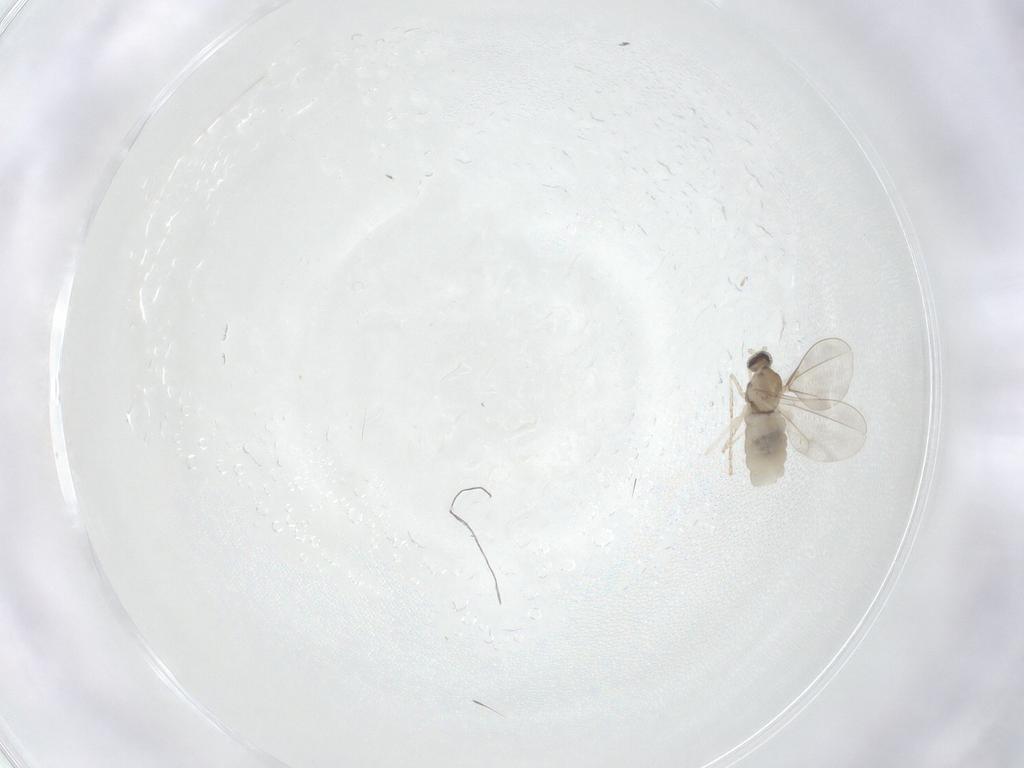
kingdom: Animalia
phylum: Arthropoda
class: Insecta
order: Diptera
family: Cecidomyiidae
